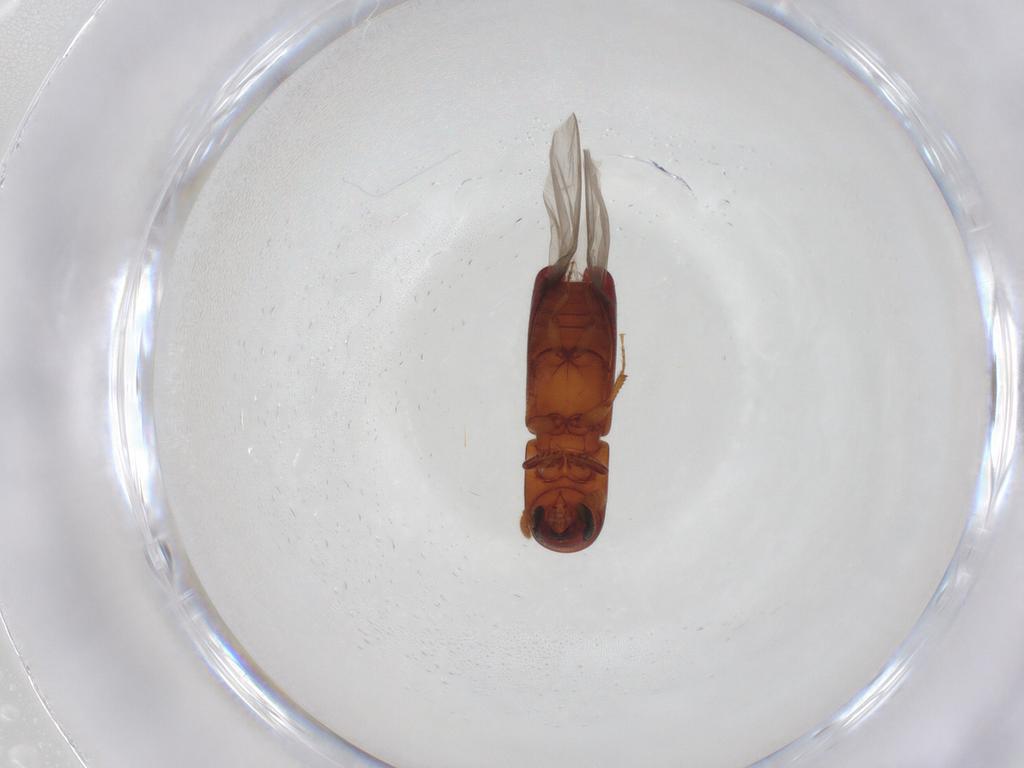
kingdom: Animalia
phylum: Arthropoda
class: Insecta
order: Coleoptera
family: Curculionidae
